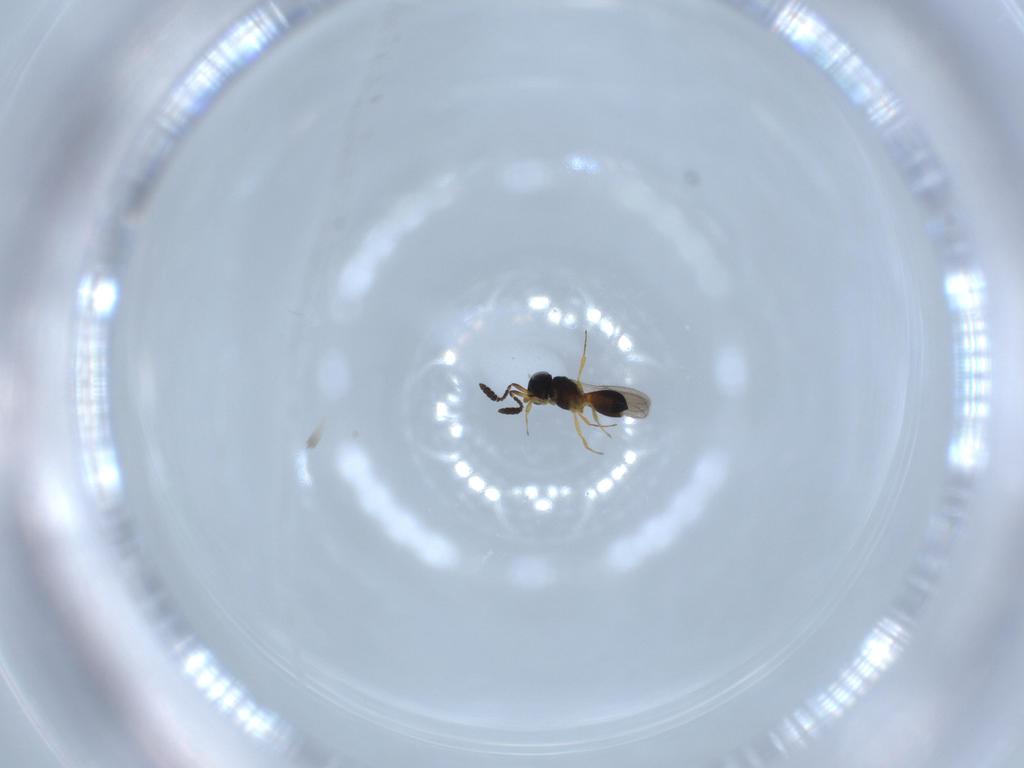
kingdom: Animalia
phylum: Arthropoda
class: Insecta
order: Hymenoptera
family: Scelionidae
